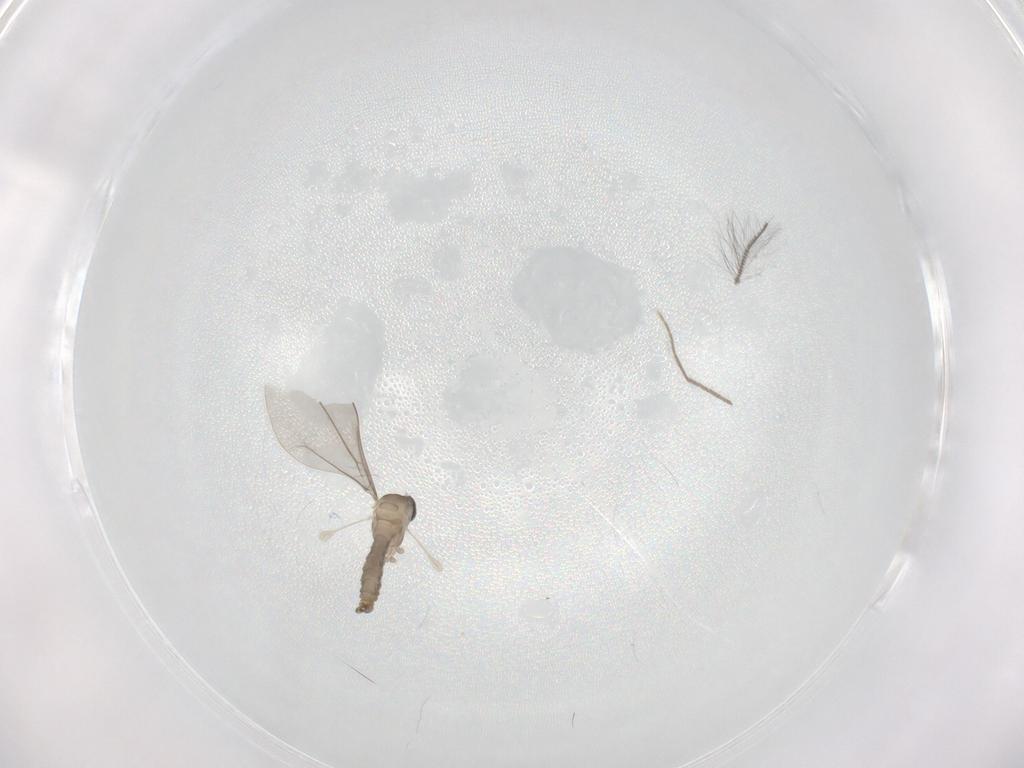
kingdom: Animalia
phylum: Arthropoda
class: Insecta
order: Diptera
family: Chironomidae
